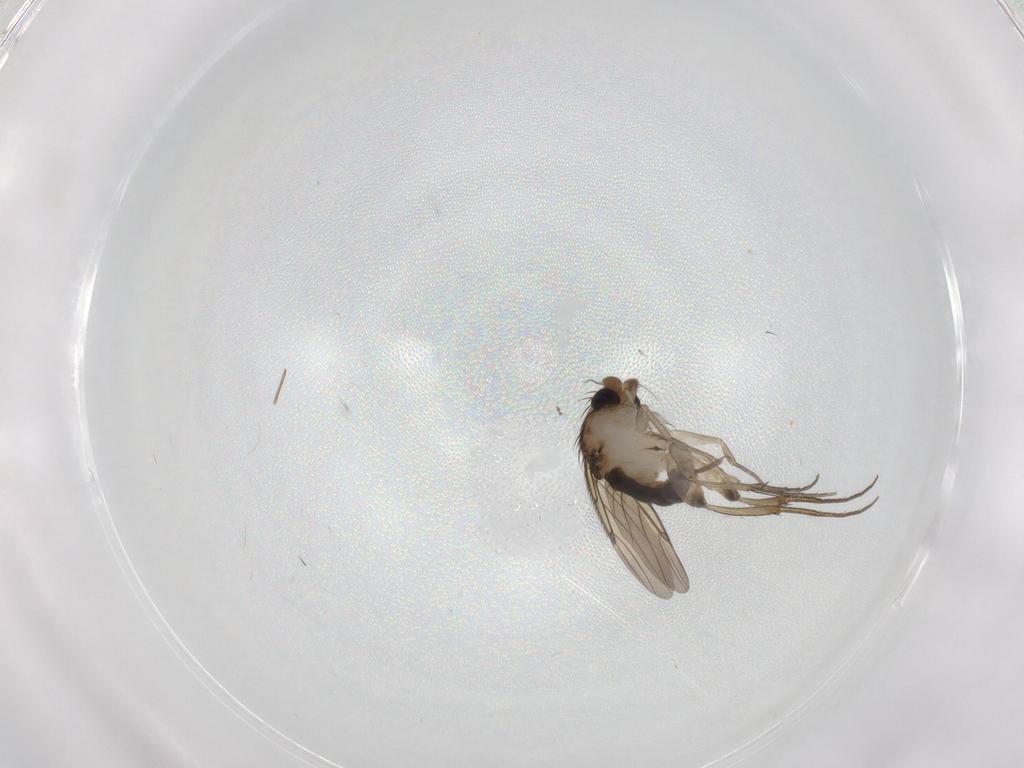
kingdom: Animalia
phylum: Arthropoda
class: Insecta
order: Diptera
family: Phoridae
